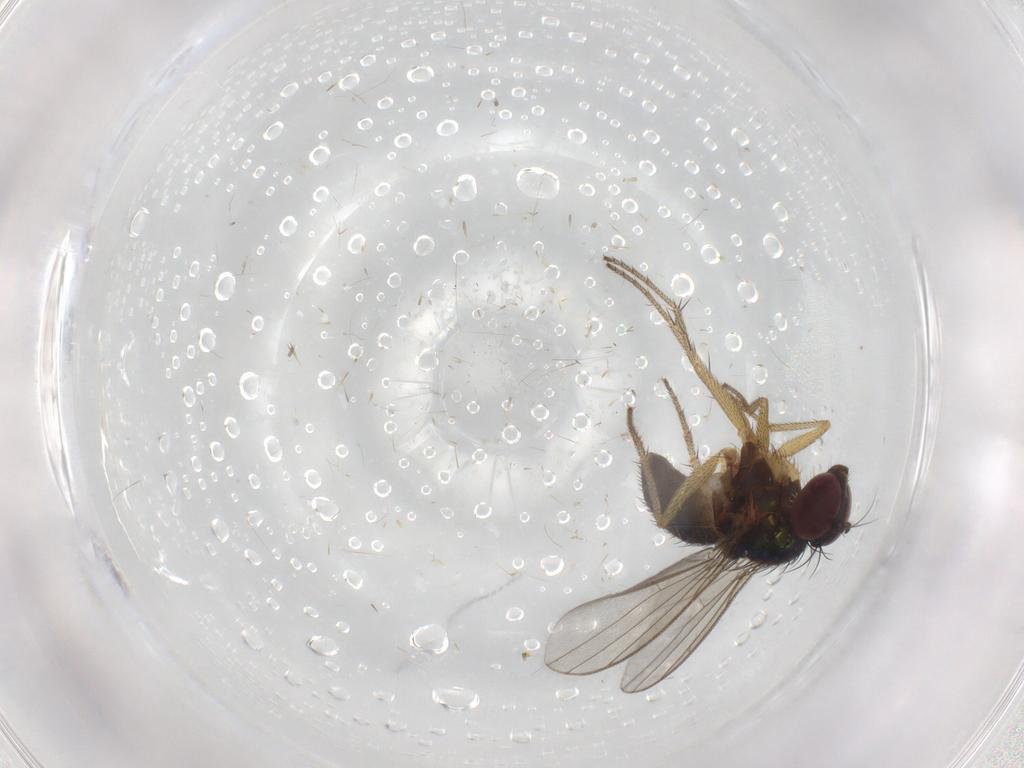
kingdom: Animalia
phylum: Arthropoda
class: Insecta
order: Diptera
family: Dolichopodidae
